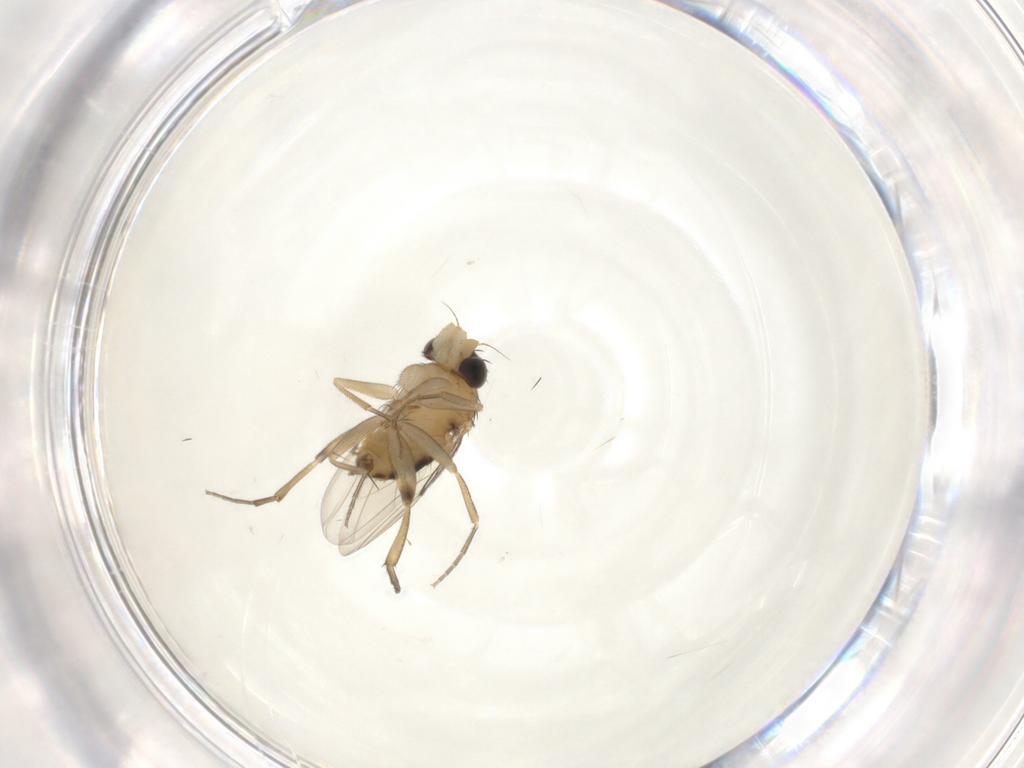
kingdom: Animalia
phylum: Arthropoda
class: Insecta
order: Diptera
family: Phoridae
